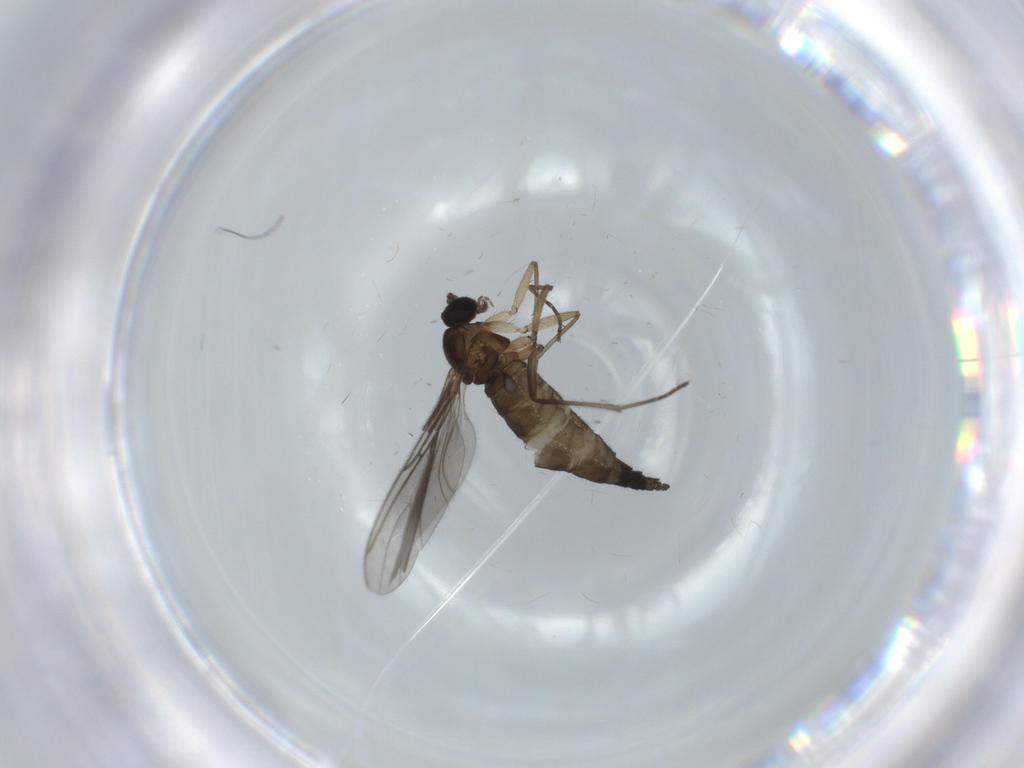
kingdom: Animalia
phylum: Arthropoda
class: Insecta
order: Diptera
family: Sciaridae
